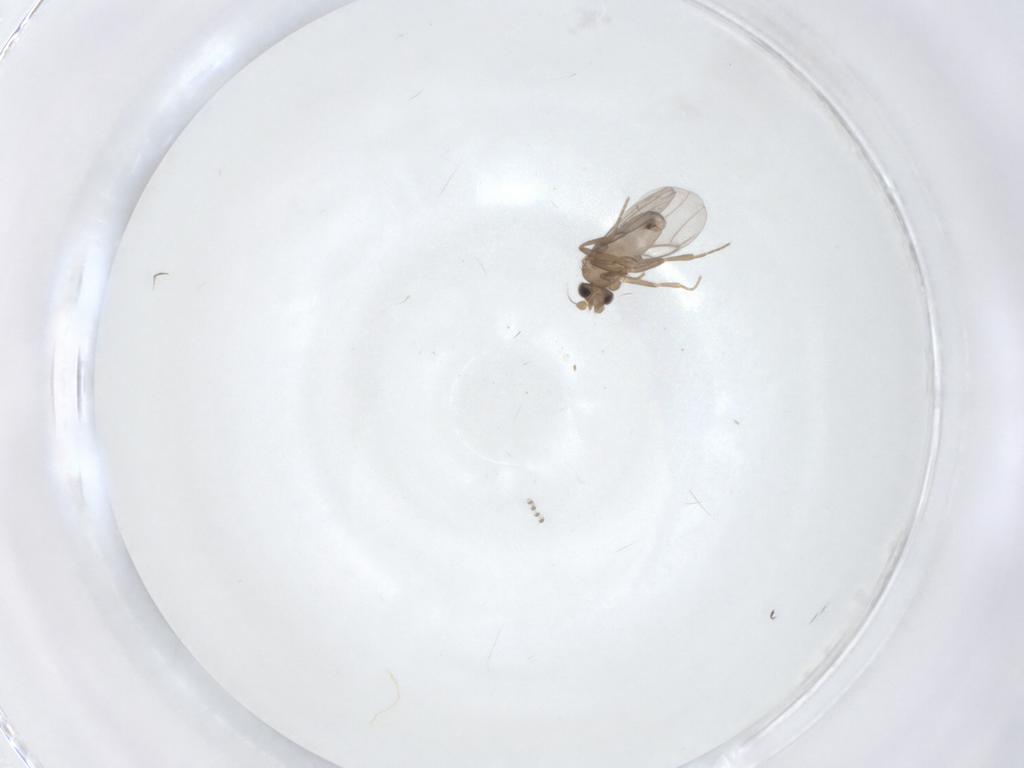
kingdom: Animalia
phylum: Arthropoda
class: Insecta
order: Diptera
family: Psychodidae
